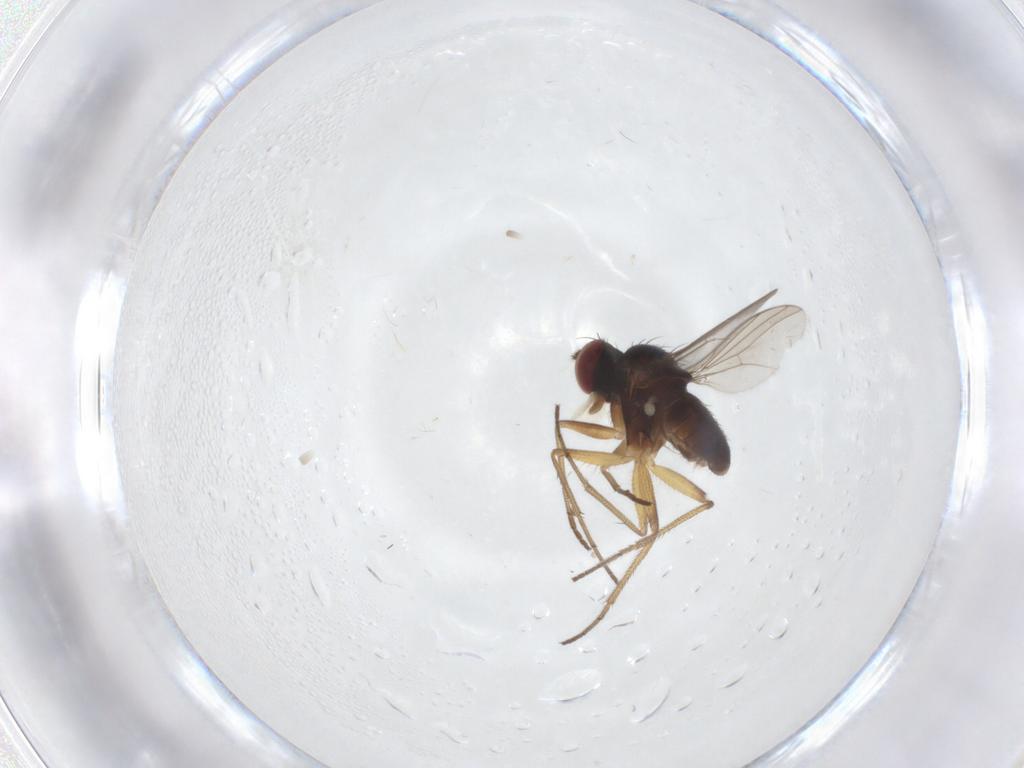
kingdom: Animalia
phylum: Arthropoda
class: Insecta
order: Diptera
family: Dolichopodidae
